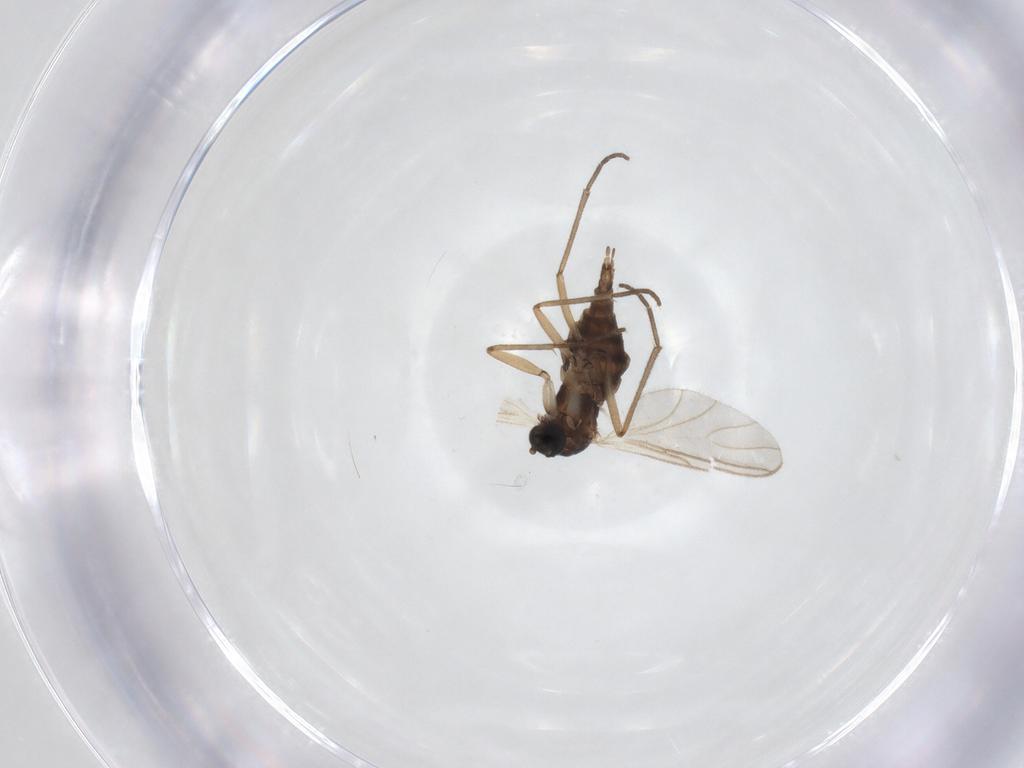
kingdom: Animalia
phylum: Arthropoda
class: Insecta
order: Diptera
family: Sciaridae
